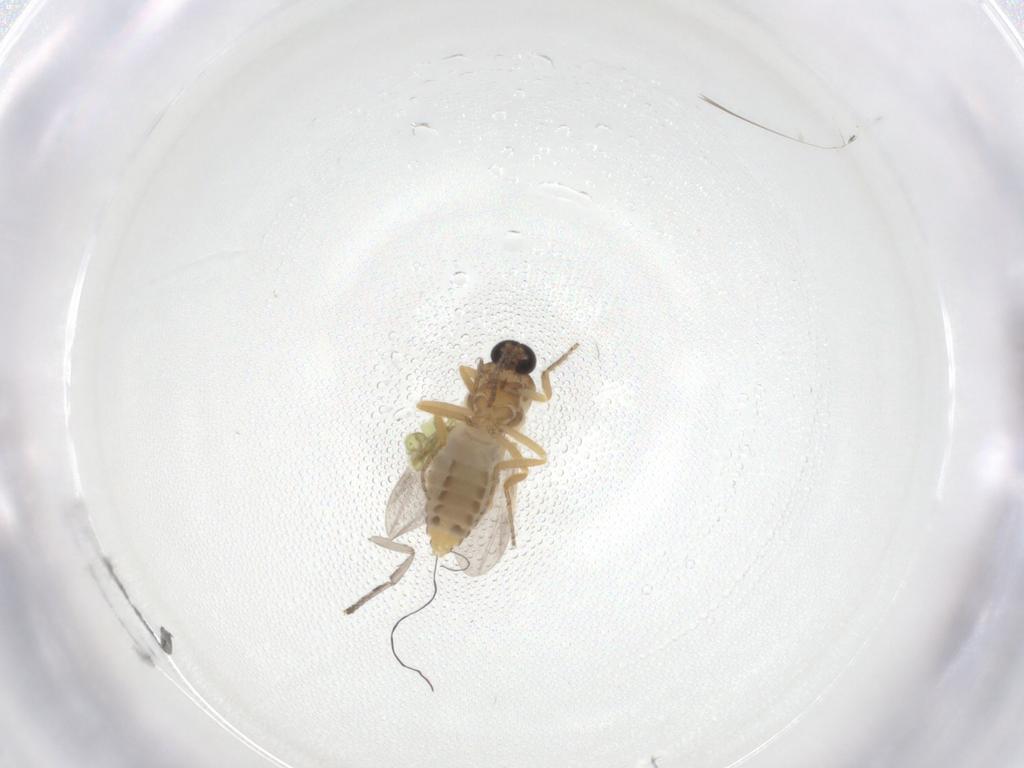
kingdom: Animalia
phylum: Arthropoda
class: Insecta
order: Diptera
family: Ceratopogonidae
